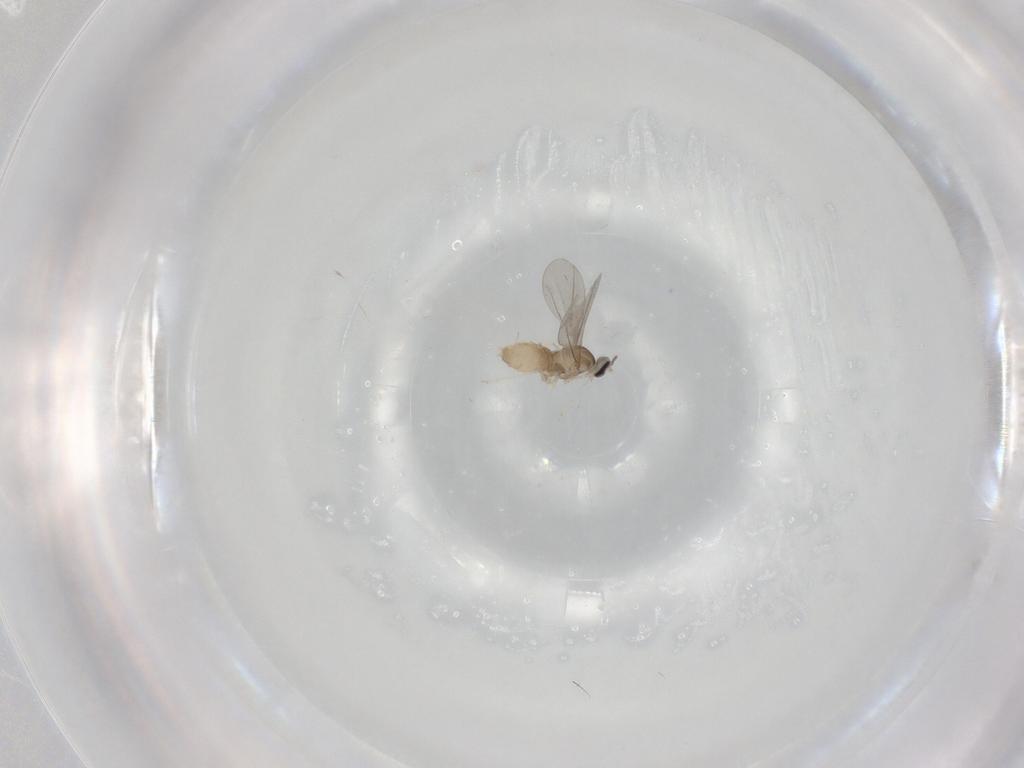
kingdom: Animalia
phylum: Arthropoda
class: Insecta
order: Diptera
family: Cecidomyiidae
